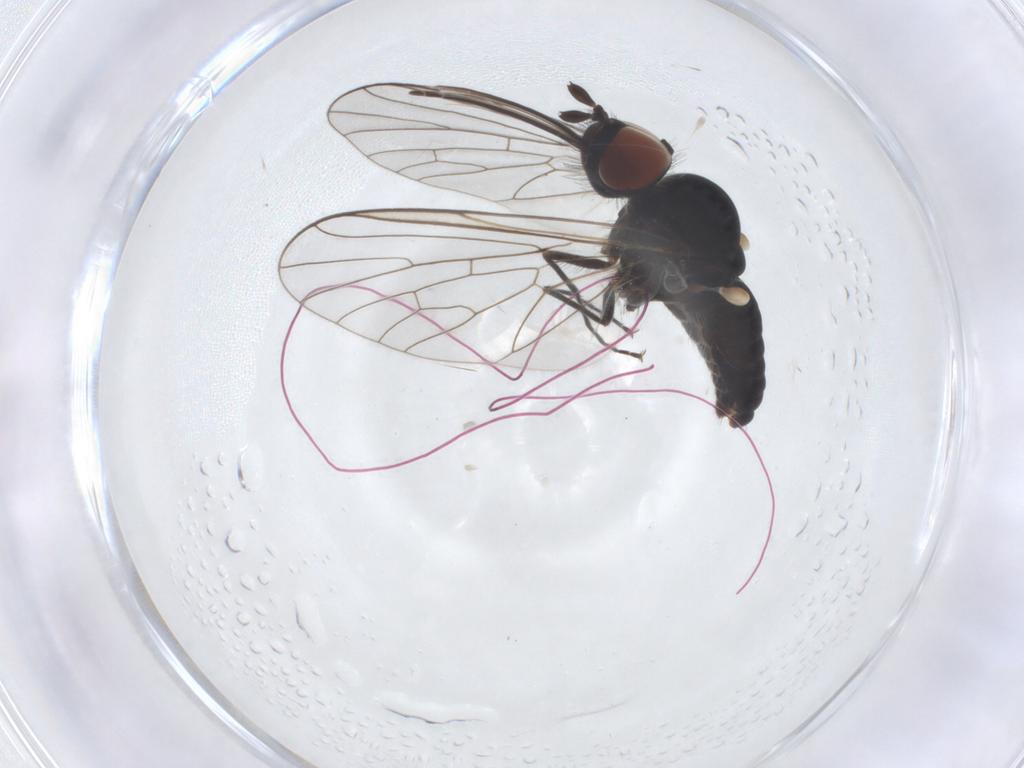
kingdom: Animalia
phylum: Arthropoda
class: Insecta
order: Diptera
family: Bombyliidae
